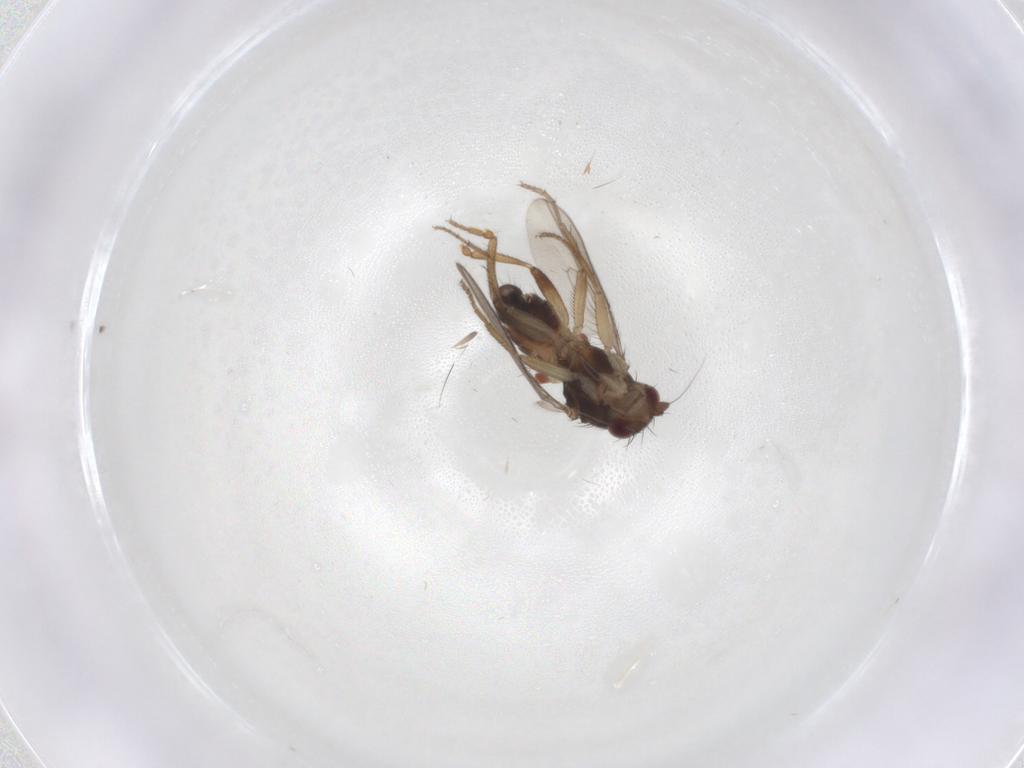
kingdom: Animalia
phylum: Arthropoda
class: Insecta
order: Diptera
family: Sphaeroceridae
